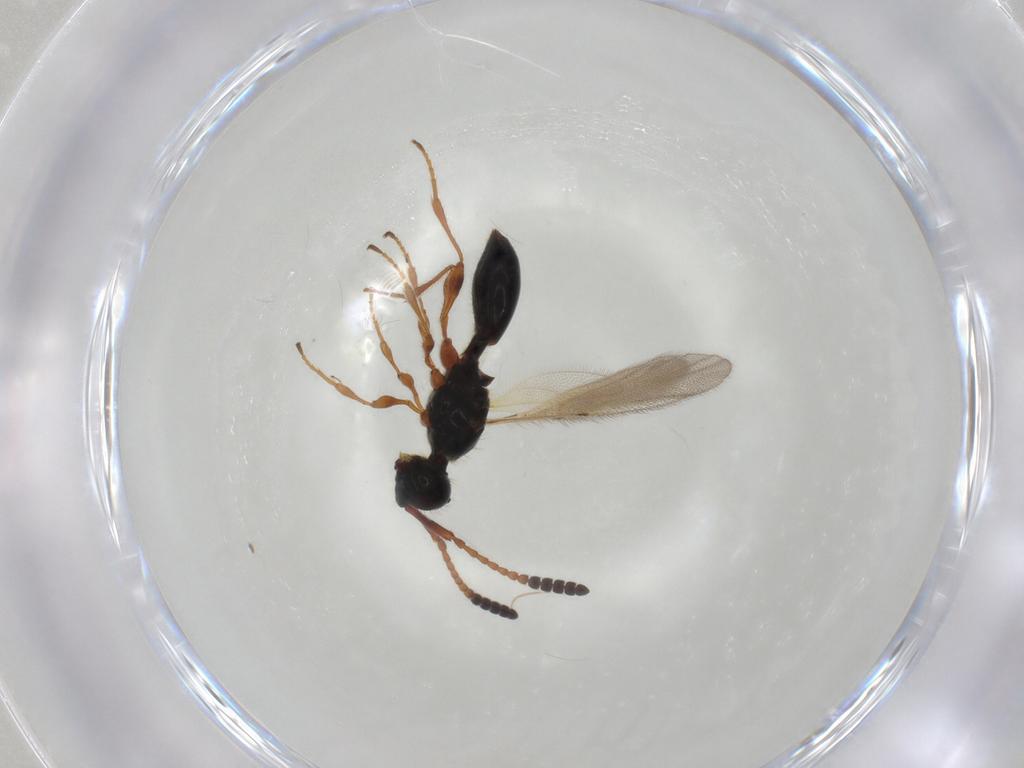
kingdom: Animalia
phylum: Arthropoda
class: Insecta
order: Hymenoptera
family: Diapriidae
